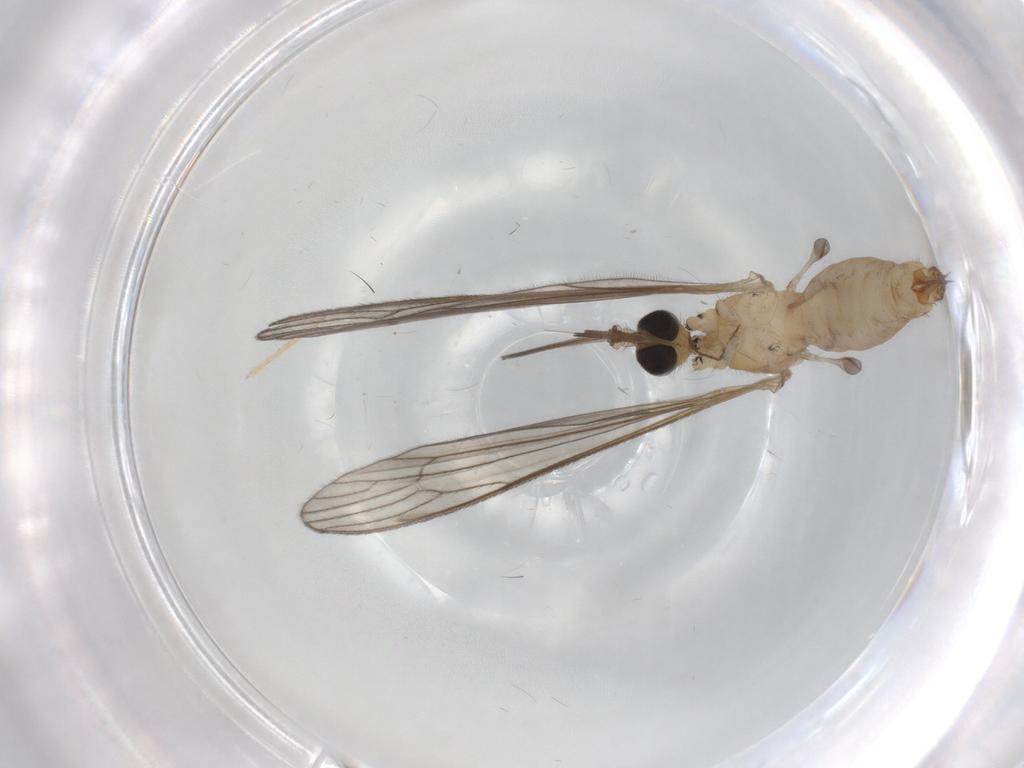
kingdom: Animalia
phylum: Arthropoda
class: Insecta
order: Diptera
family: Limoniidae
